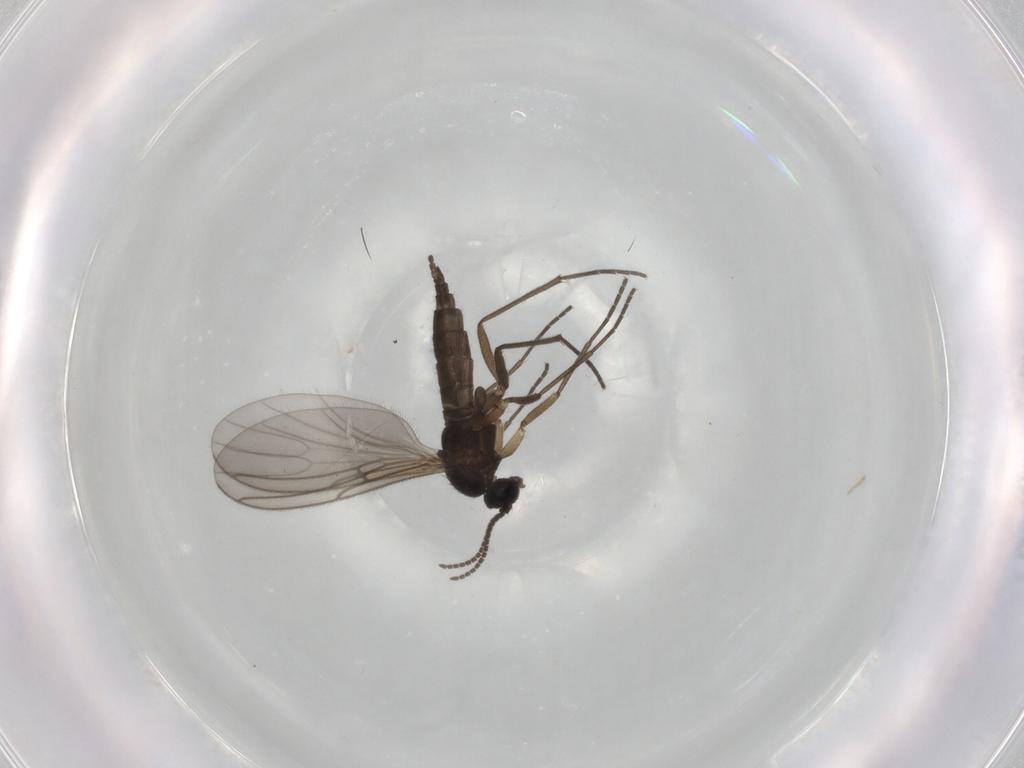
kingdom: Animalia
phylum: Arthropoda
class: Insecta
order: Diptera
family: Sciaridae
